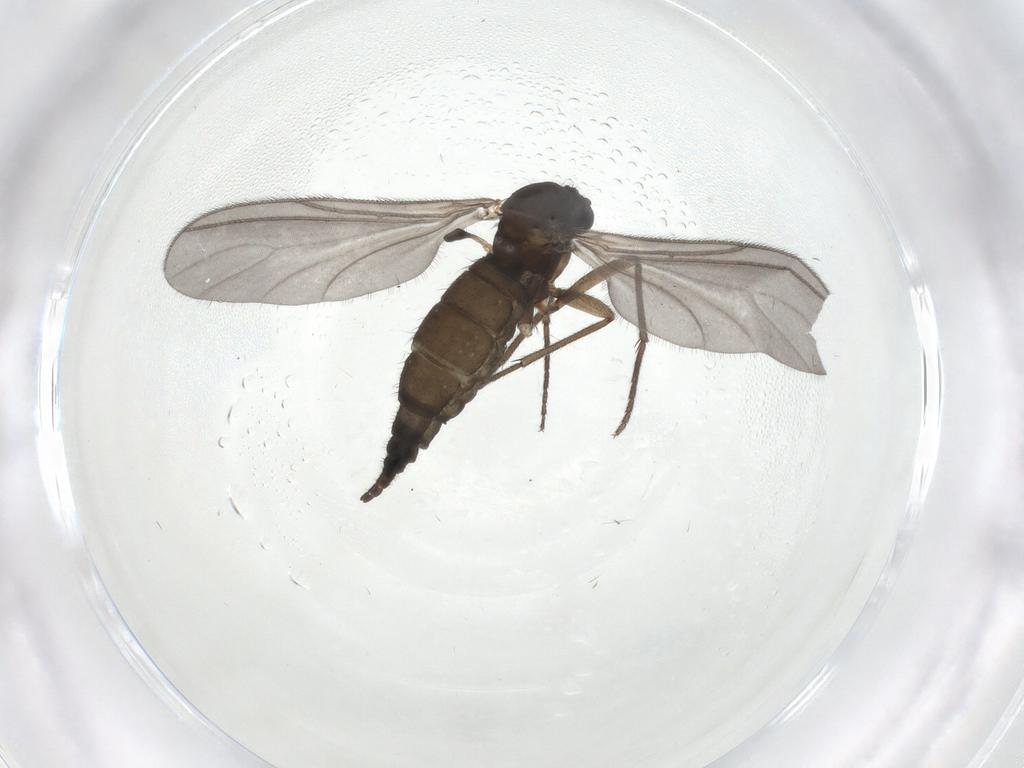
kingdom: Animalia
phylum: Arthropoda
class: Insecta
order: Diptera
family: Sciaridae
